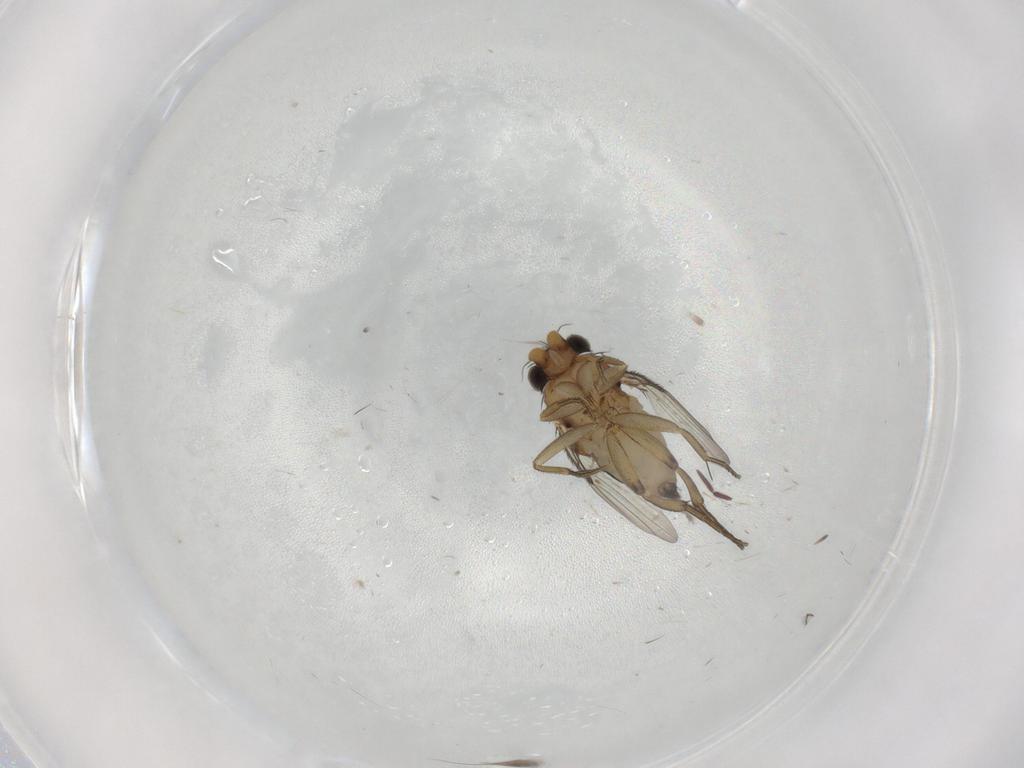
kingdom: Animalia
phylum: Arthropoda
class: Insecta
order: Diptera
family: Phoridae
